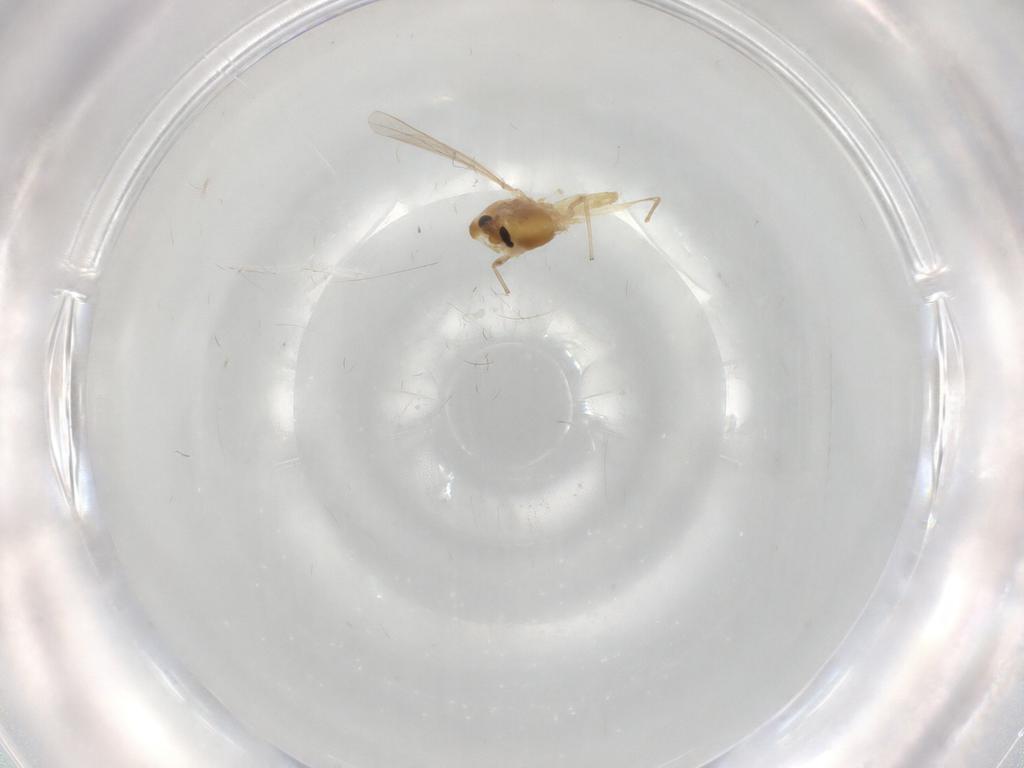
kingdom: Animalia
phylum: Arthropoda
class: Insecta
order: Diptera
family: Chironomidae
